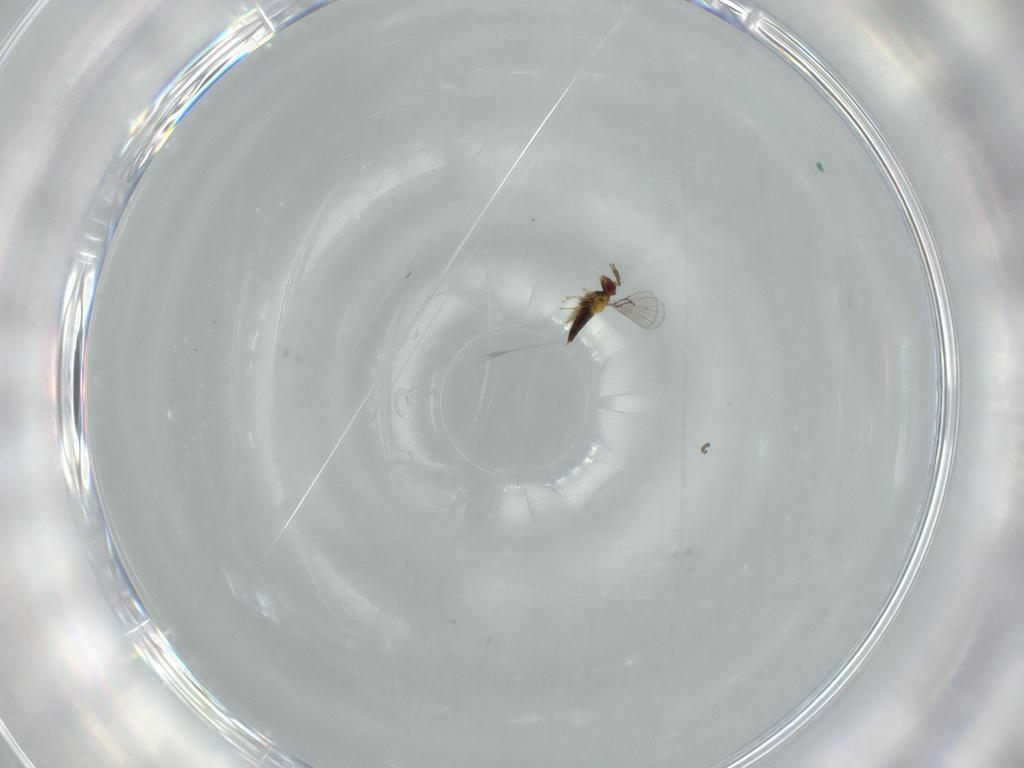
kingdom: Animalia
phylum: Arthropoda
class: Insecta
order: Hymenoptera
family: Trichogrammatidae
